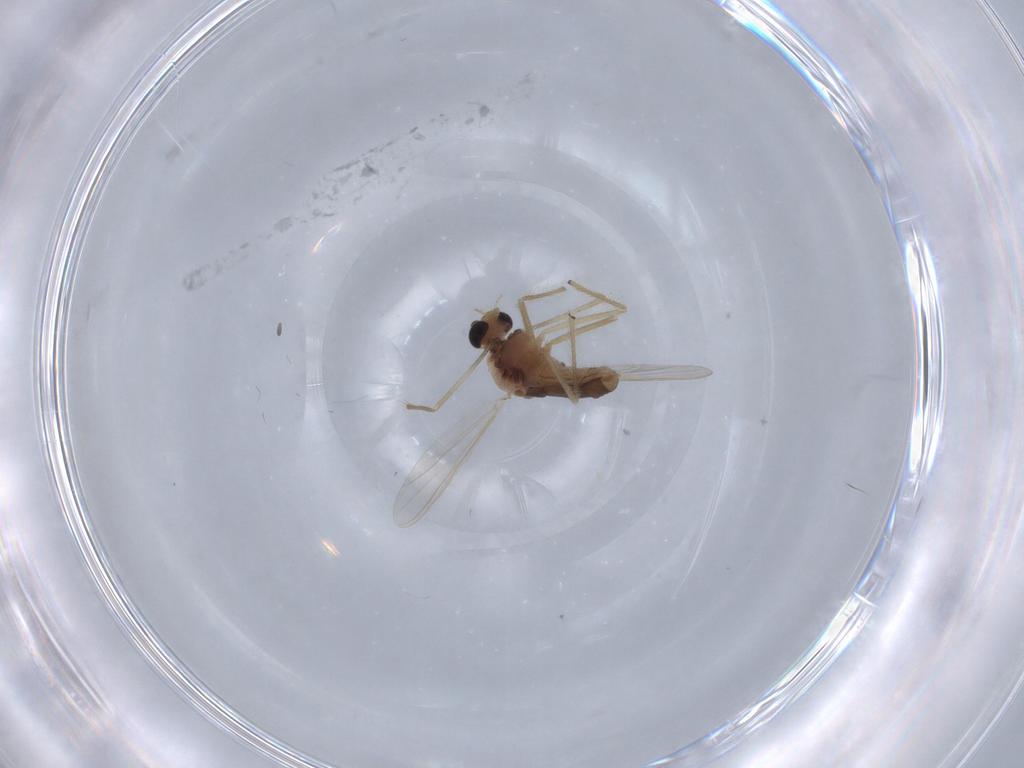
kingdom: Animalia
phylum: Arthropoda
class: Insecta
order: Diptera
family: Chironomidae
